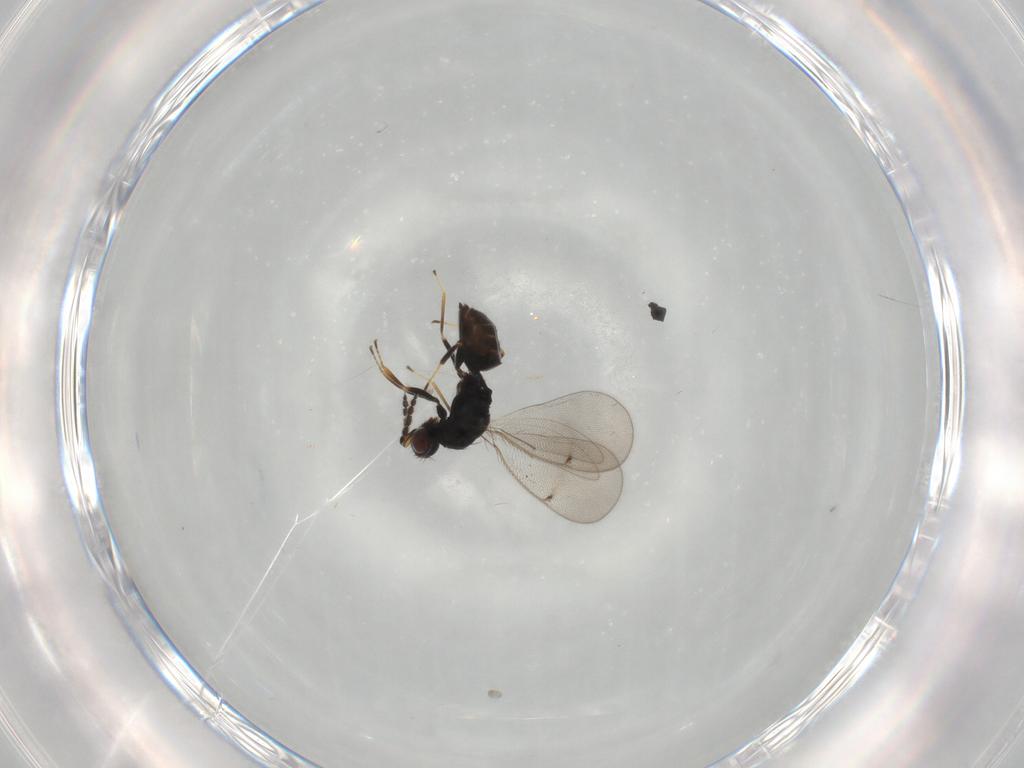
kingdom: Animalia
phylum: Arthropoda
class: Insecta
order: Hymenoptera
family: Eulophidae
